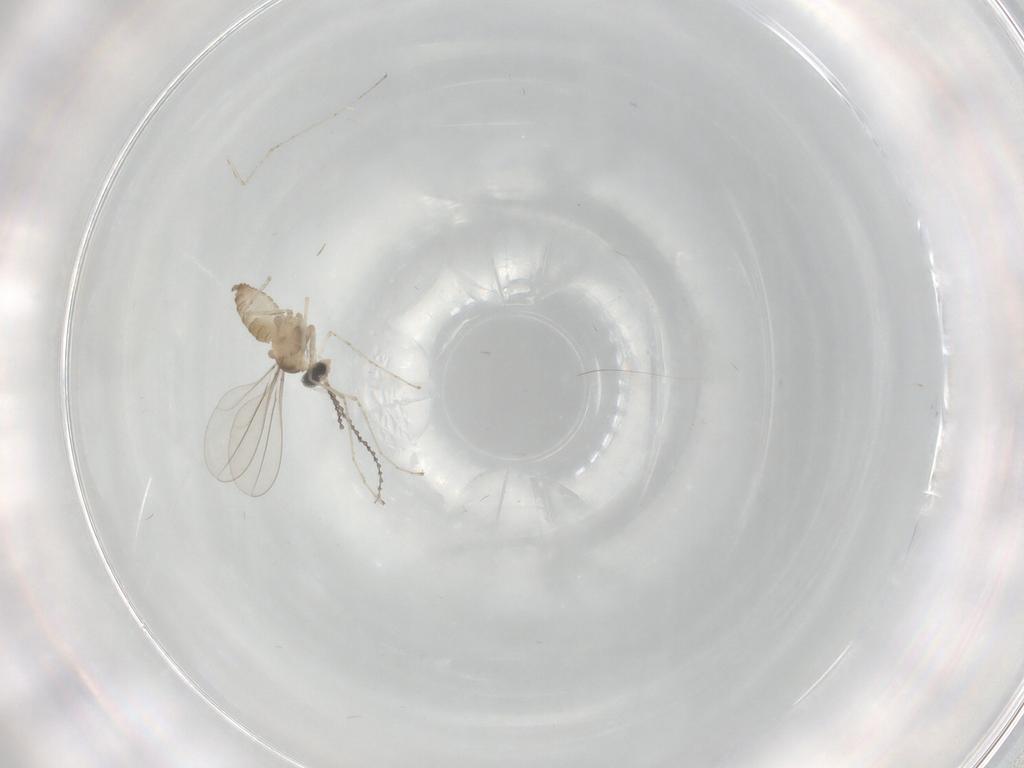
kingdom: Animalia
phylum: Arthropoda
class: Insecta
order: Diptera
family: Cecidomyiidae
